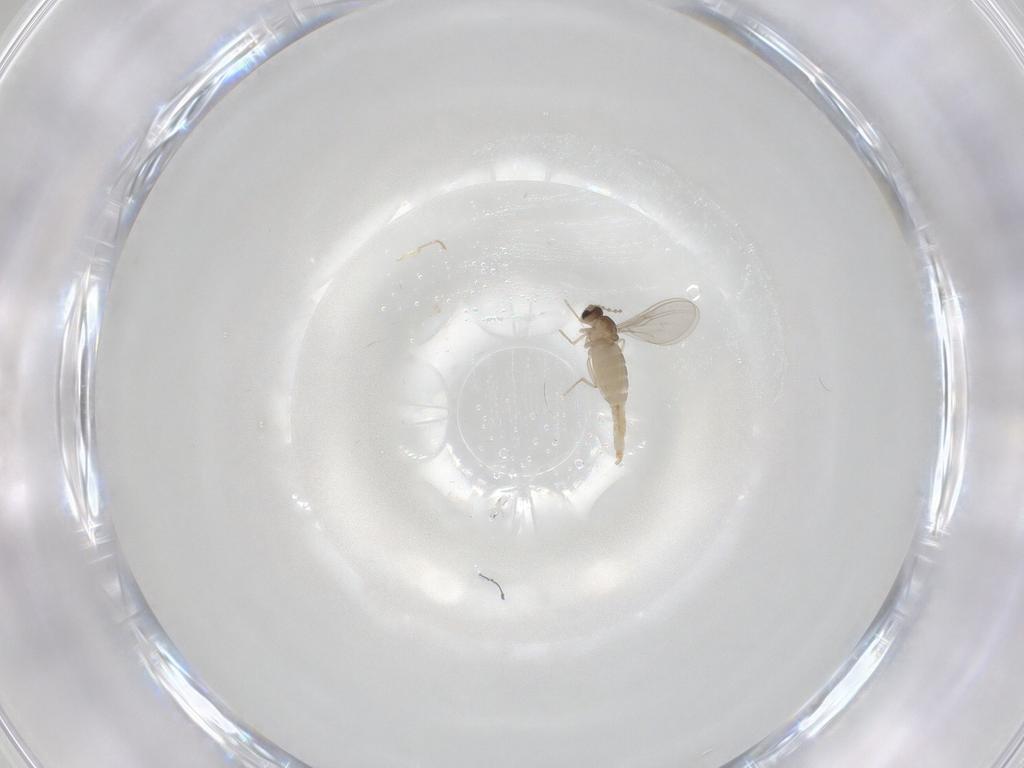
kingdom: Animalia
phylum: Arthropoda
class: Insecta
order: Diptera
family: Cecidomyiidae
